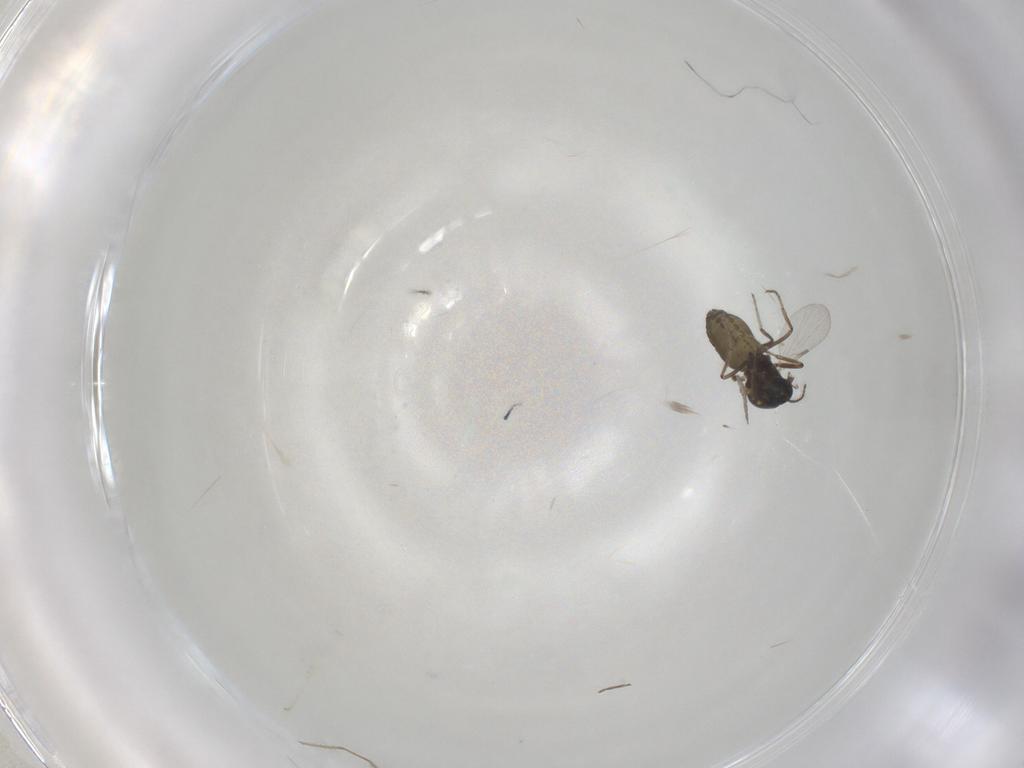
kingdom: Animalia
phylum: Arthropoda
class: Insecta
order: Diptera
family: Ceratopogonidae
